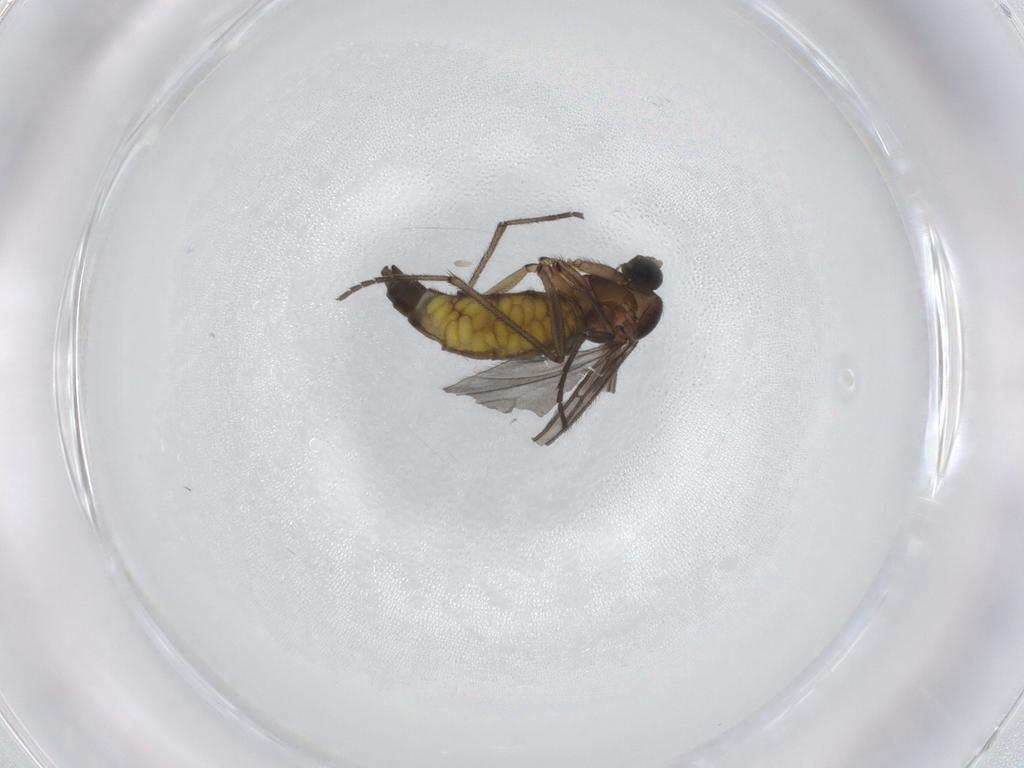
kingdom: Animalia
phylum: Arthropoda
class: Insecta
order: Diptera
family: Sciaridae
